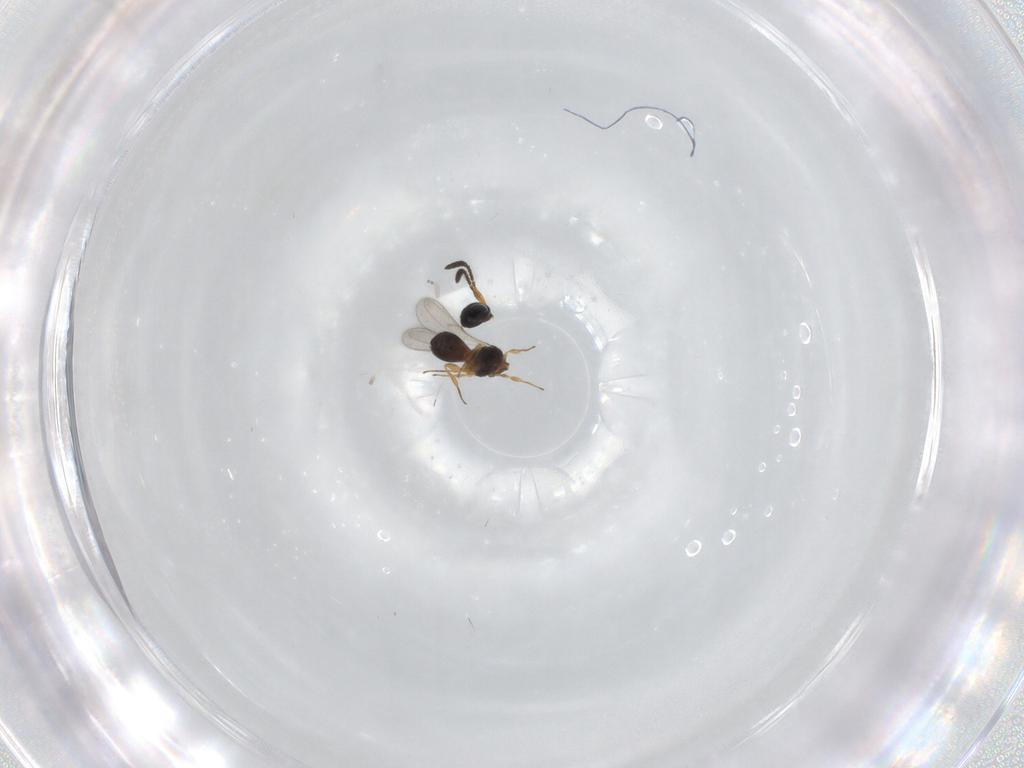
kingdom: Animalia
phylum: Arthropoda
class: Insecta
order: Hymenoptera
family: Scelionidae
